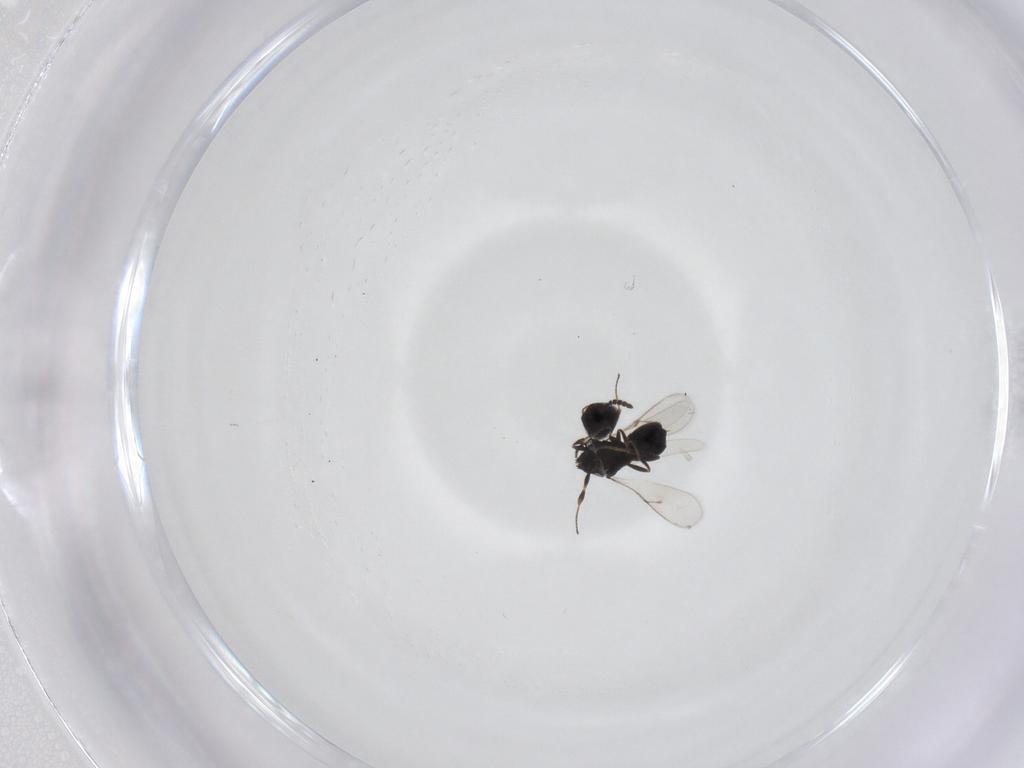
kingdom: Animalia
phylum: Arthropoda
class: Insecta
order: Hymenoptera
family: Scelionidae
